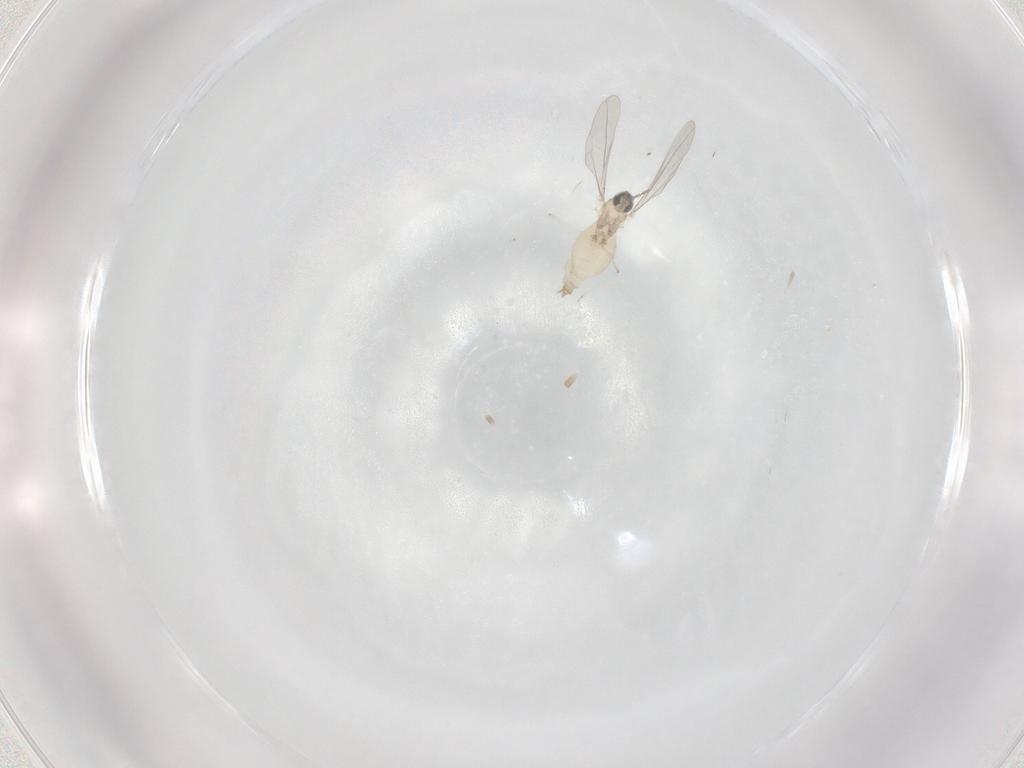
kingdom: Animalia
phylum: Arthropoda
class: Insecta
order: Diptera
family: Cecidomyiidae
